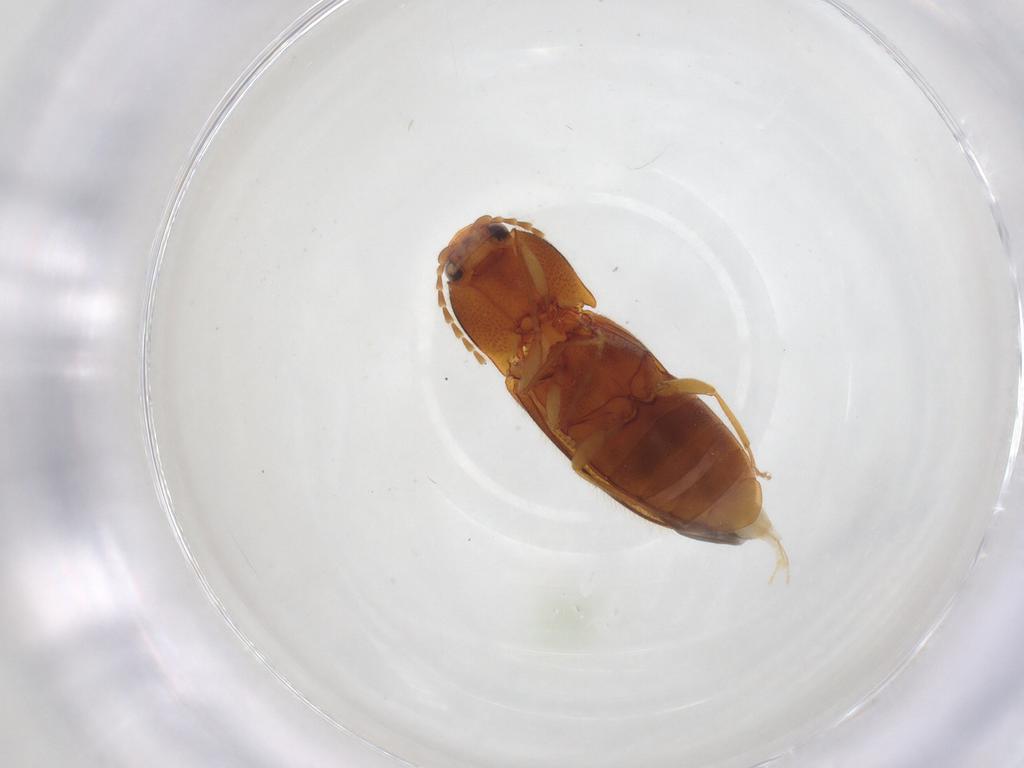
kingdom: Animalia
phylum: Arthropoda
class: Insecta
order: Coleoptera
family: Elateridae
